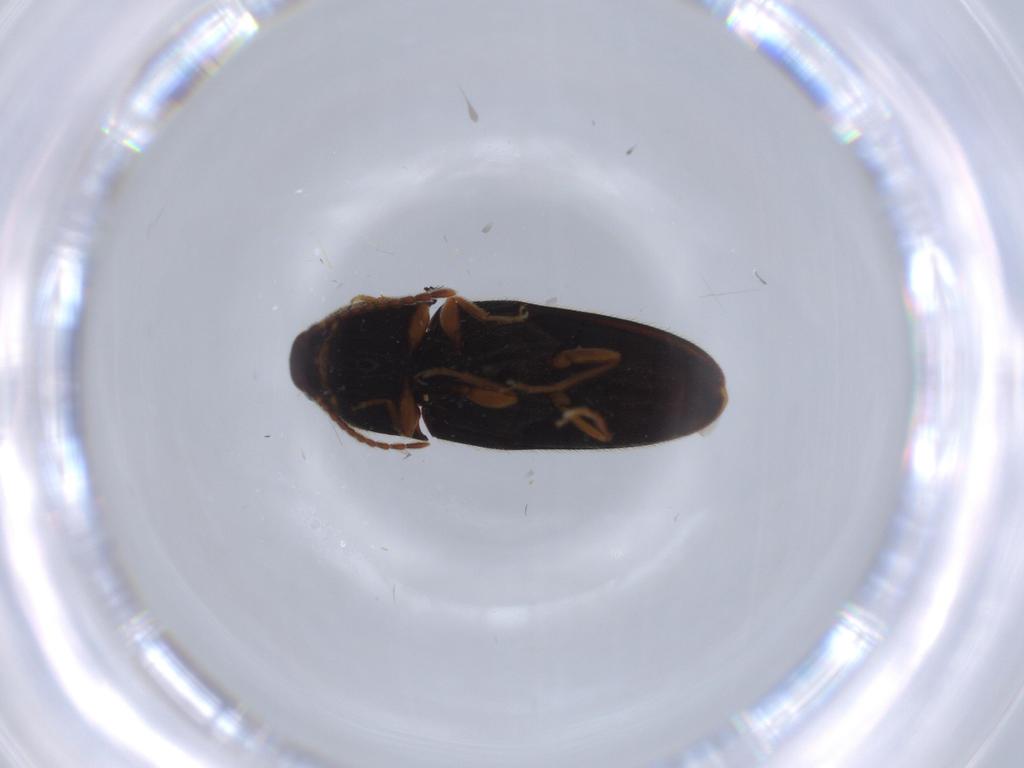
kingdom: Animalia
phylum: Arthropoda
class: Insecta
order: Coleoptera
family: Elateridae
